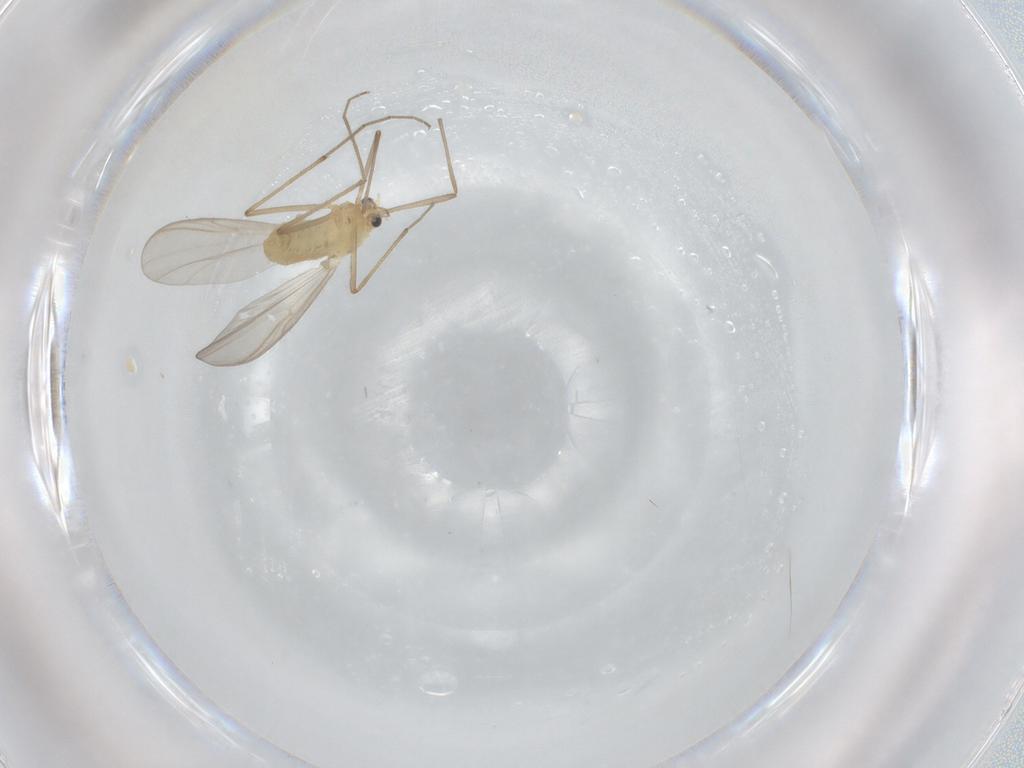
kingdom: Animalia
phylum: Arthropoda
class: Insecta
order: Diptera
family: Chironomidae
